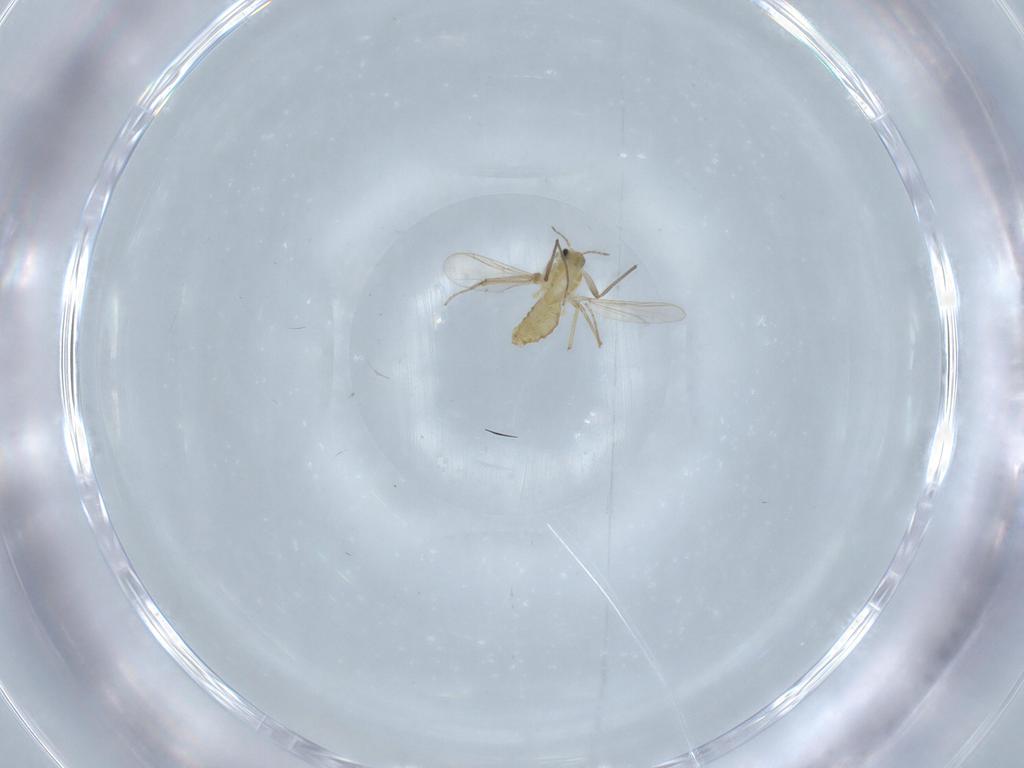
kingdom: Animalia
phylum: Arthropoda
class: Insecta
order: Diptera
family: Chironomidae
